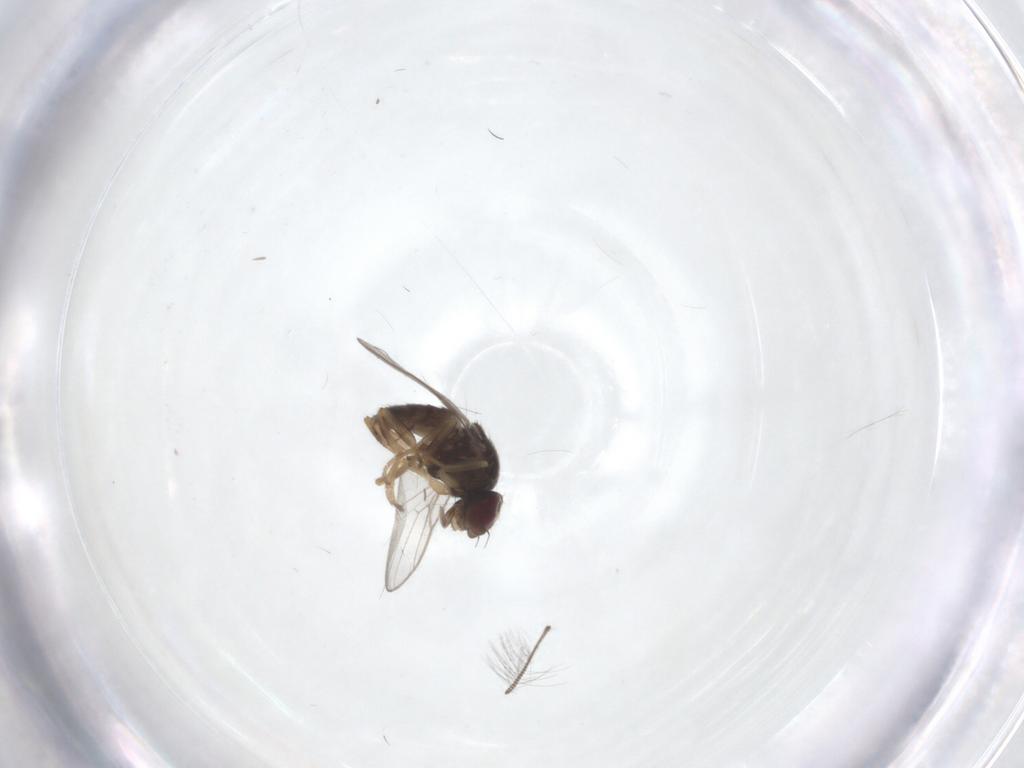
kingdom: Animalia
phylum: Arthropoda
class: Insecta
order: Diptera
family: Chloropidae
